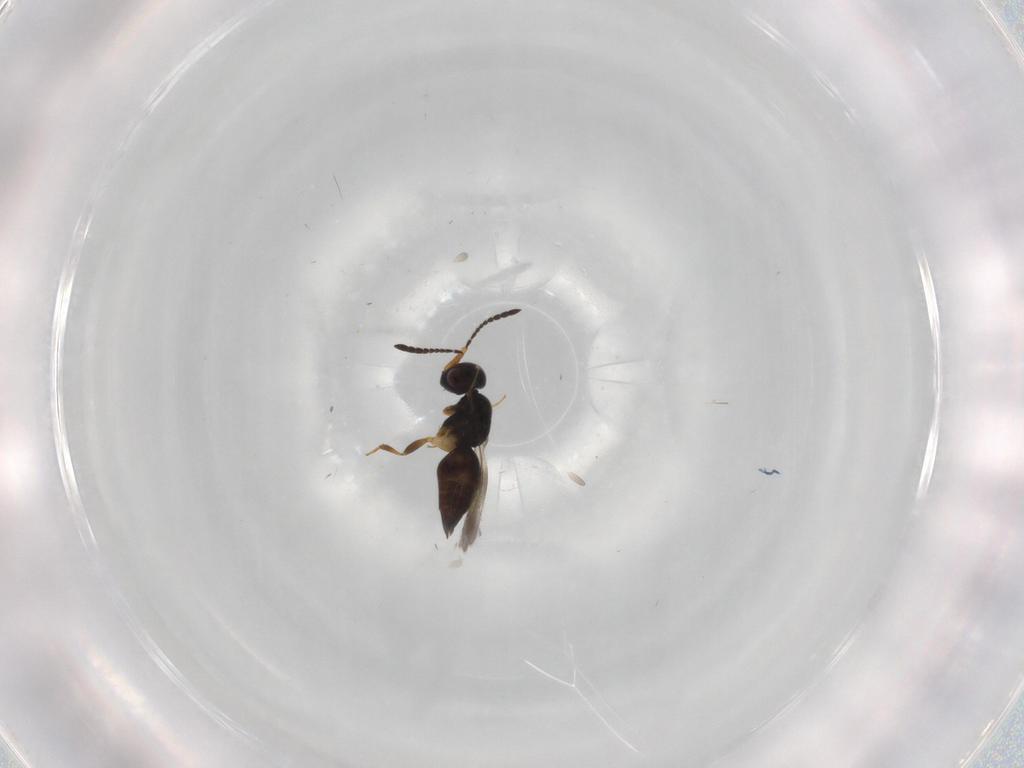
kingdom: Animalia
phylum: Arthropoda
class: Insecta
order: Hymenoptera
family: Ceraphronidae
